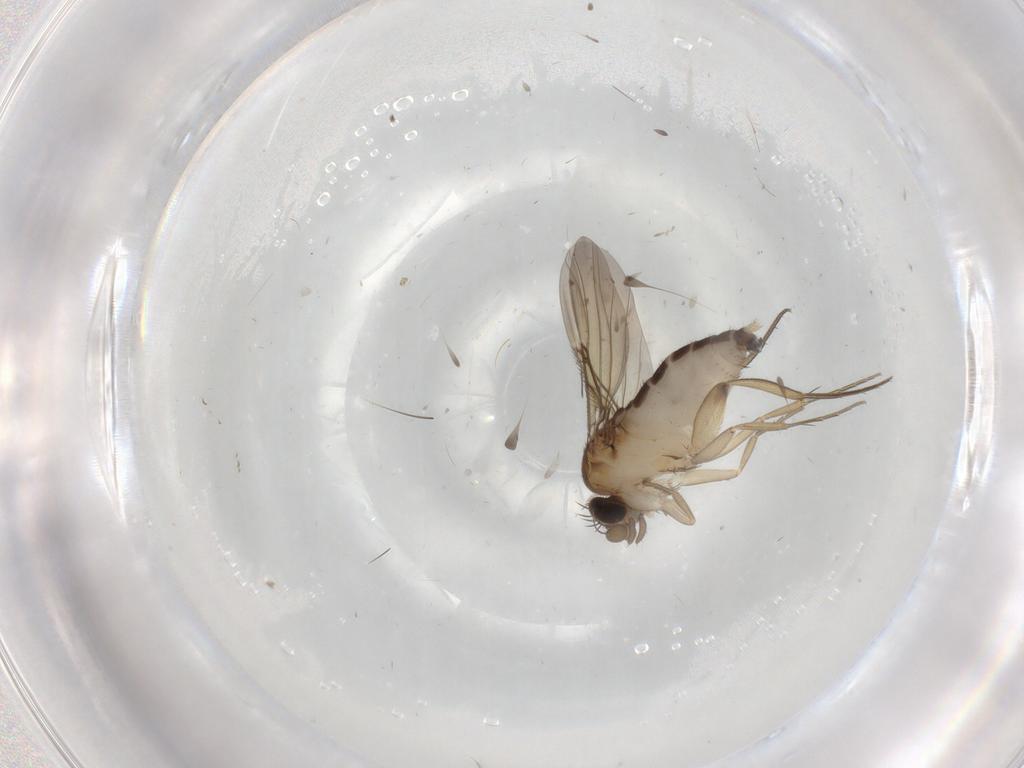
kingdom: Animalia
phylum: Arthropoda
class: Insecta
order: Diptera
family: Phoridae
